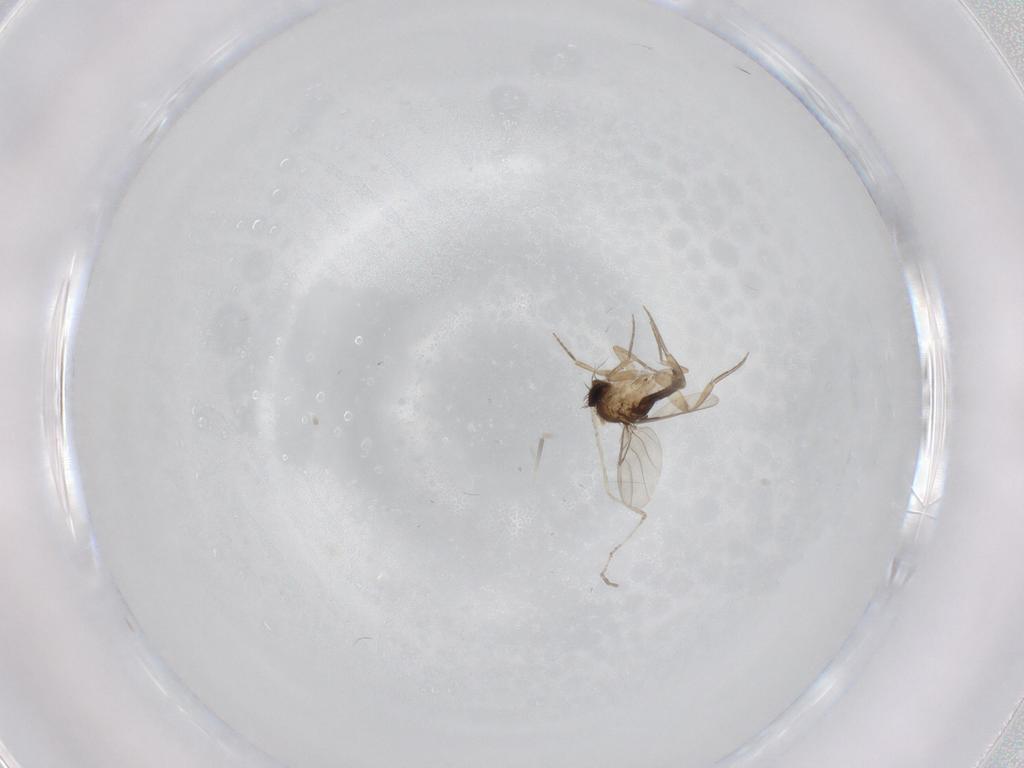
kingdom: Animalia
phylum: Arthropoda
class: Insecta
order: Diptera
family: Phoridae
